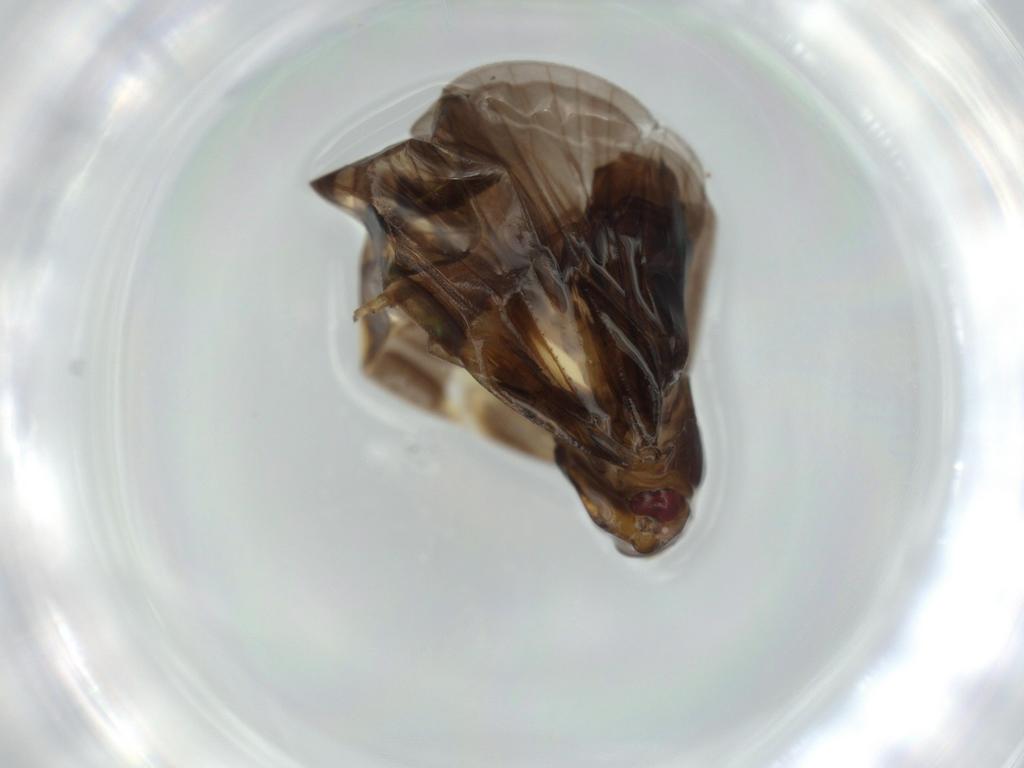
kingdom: Animalia
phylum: Arthropoda
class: Insecta
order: Hemiptera
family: Cixiidae
